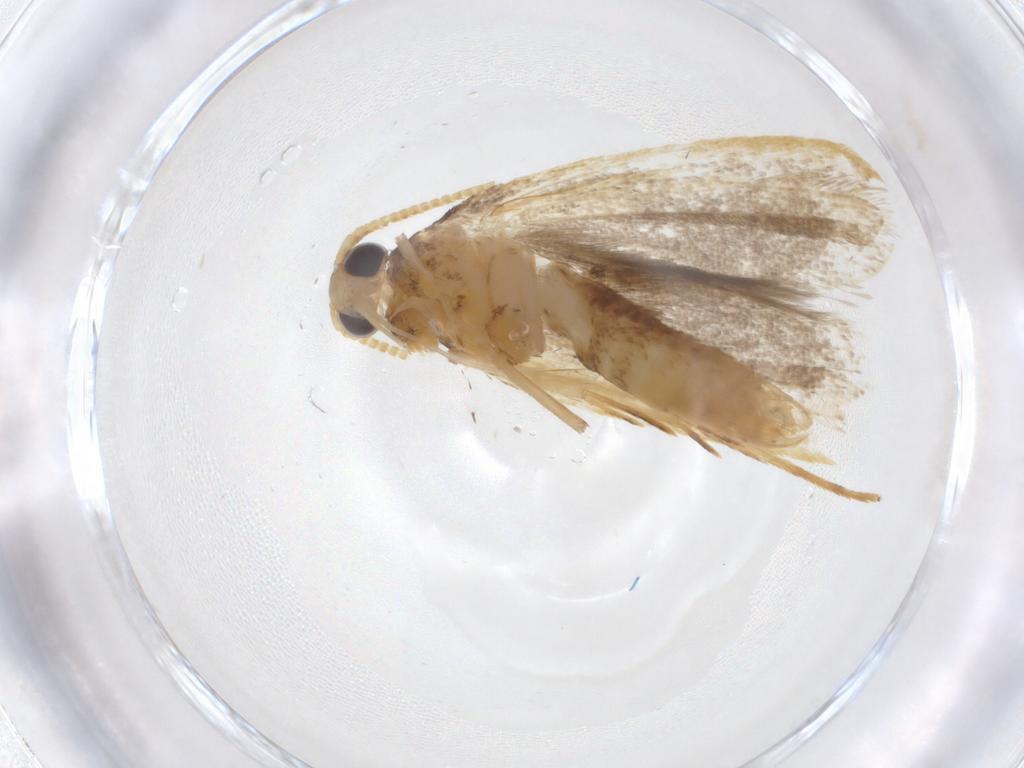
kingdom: Animalia
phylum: Arthropoda
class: Insecta
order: Lepidoptera
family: Lecithoceridae
